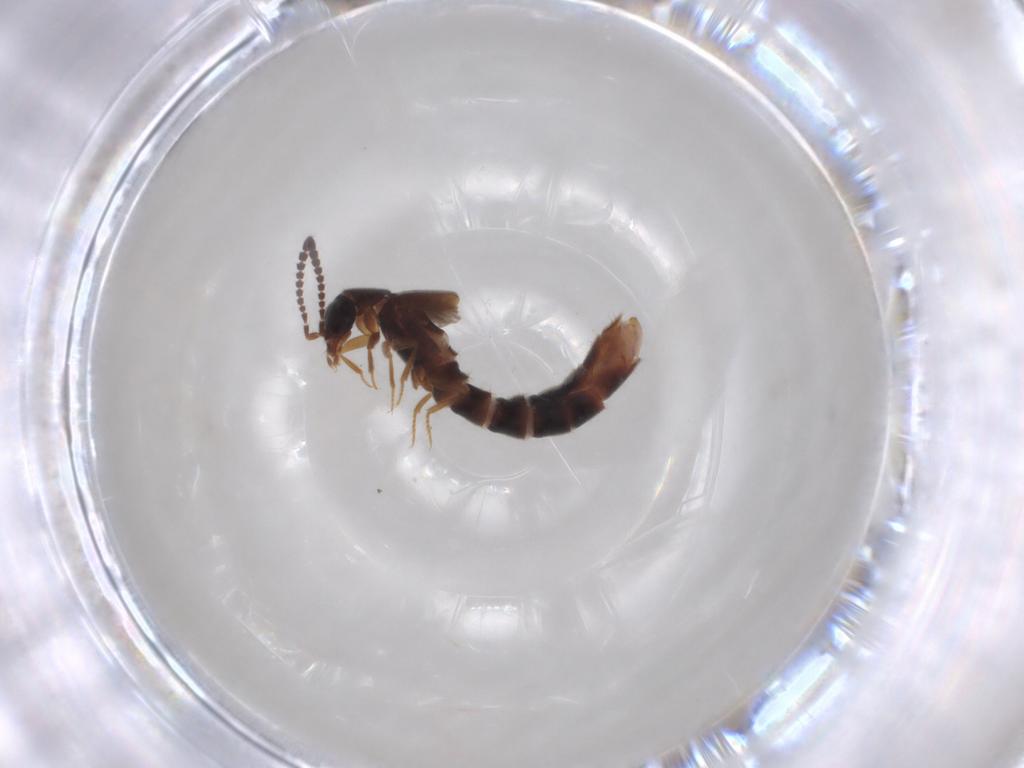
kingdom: Animalia
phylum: Arthropoda
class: Insecta
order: Coleoptera
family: Staphylinidae
